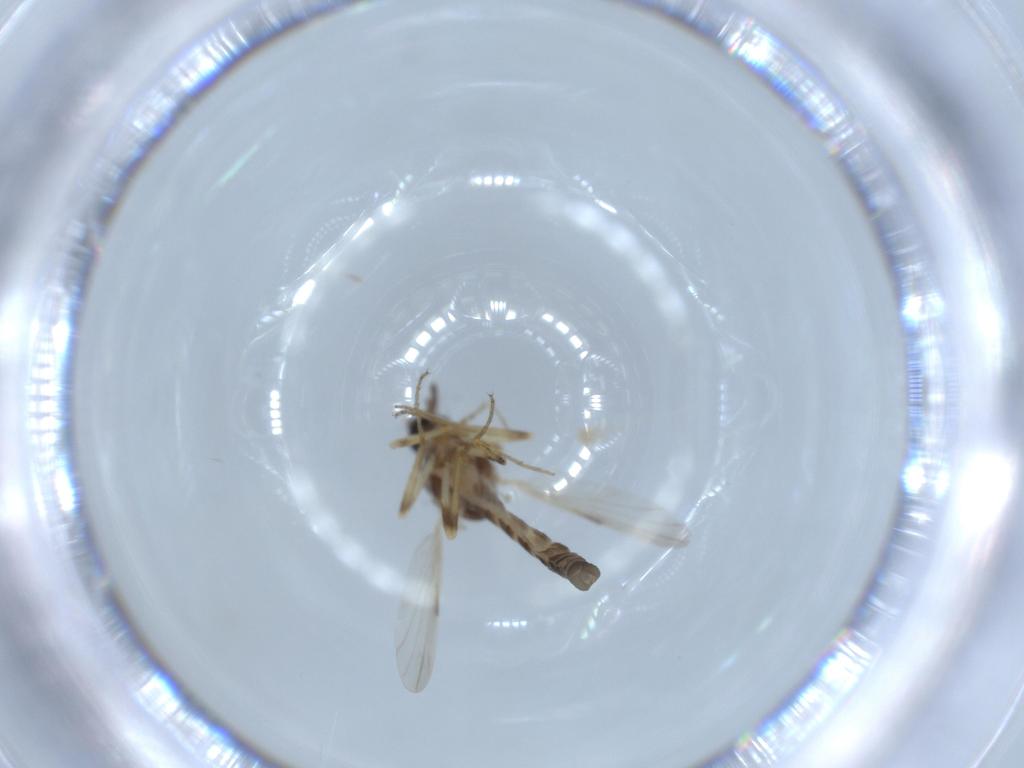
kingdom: Animalia
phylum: Arthropoda
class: Insecta
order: Diptera
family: Ceratopogonidae
